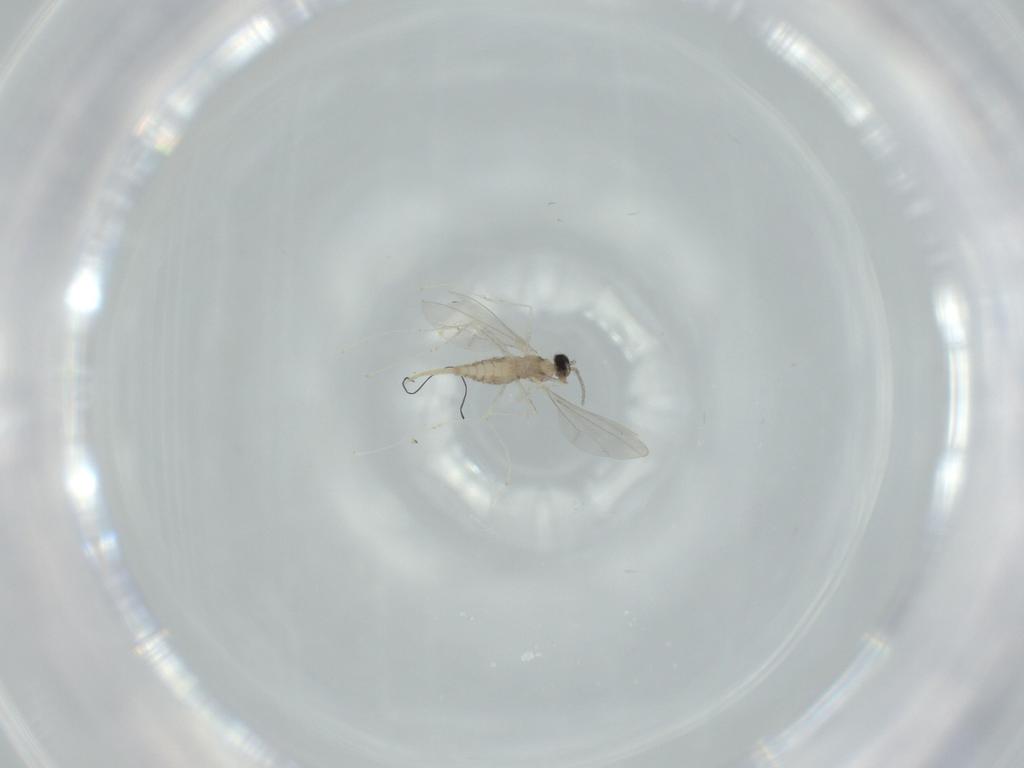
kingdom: Animalia
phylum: Arthropoda
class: Insecta
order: Diptera
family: Cecidomyiidae
